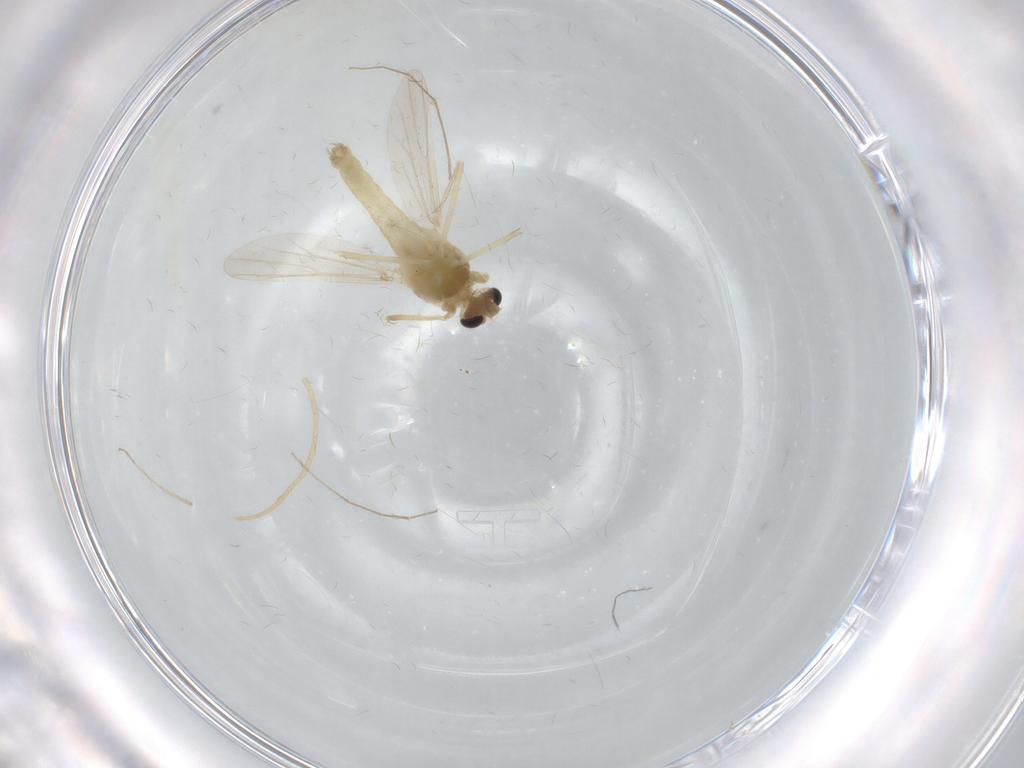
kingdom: Animalia
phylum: Arthropoda
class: Insecta
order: Diptera
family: Chironomidae
